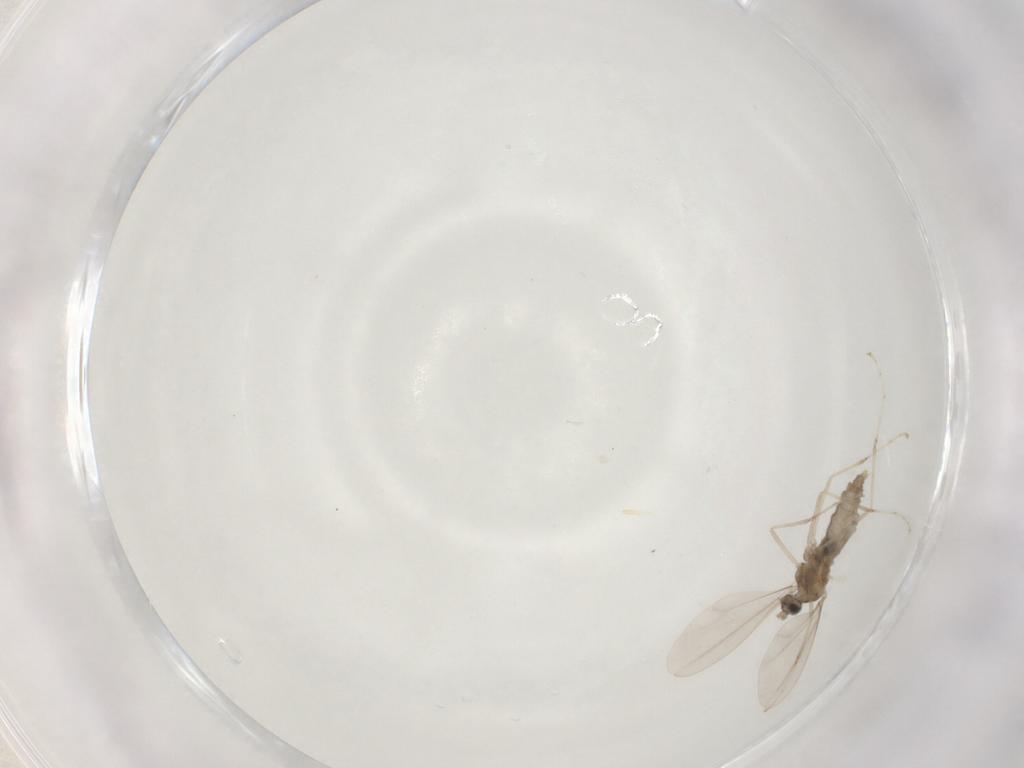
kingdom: Animalia
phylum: Arthropoda
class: Insecta
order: Diptera
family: Cecidomyiidae
